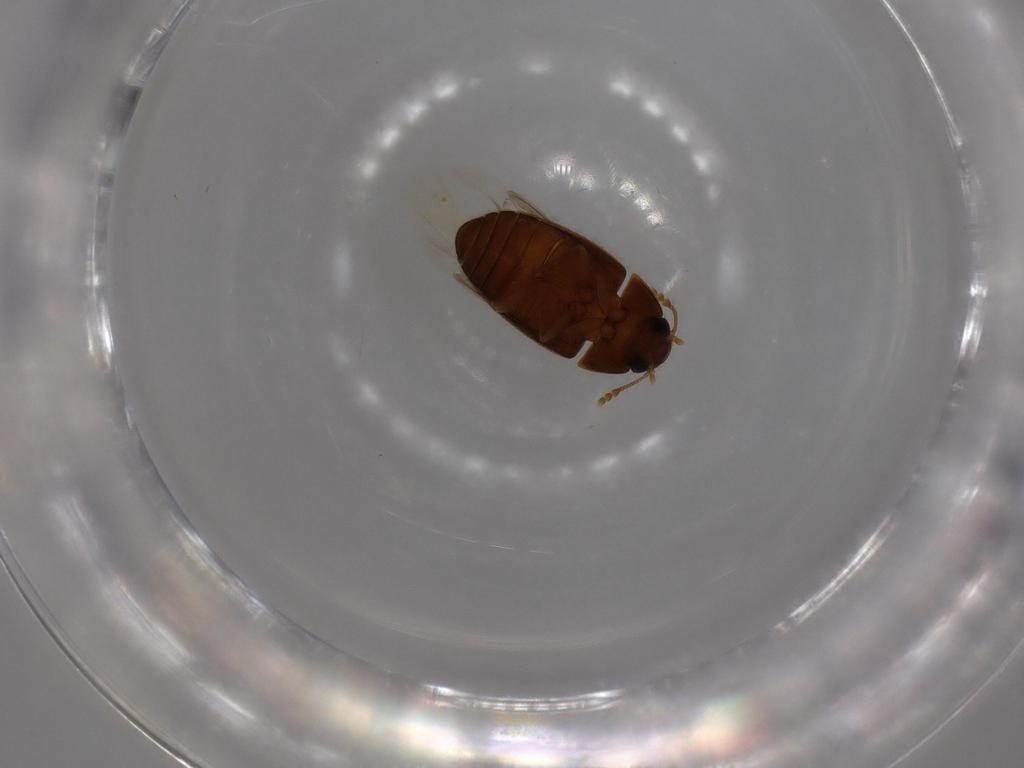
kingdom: Animalia
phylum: Arthropoda
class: Insecta
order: Coleoptera
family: Mycetophagidae
